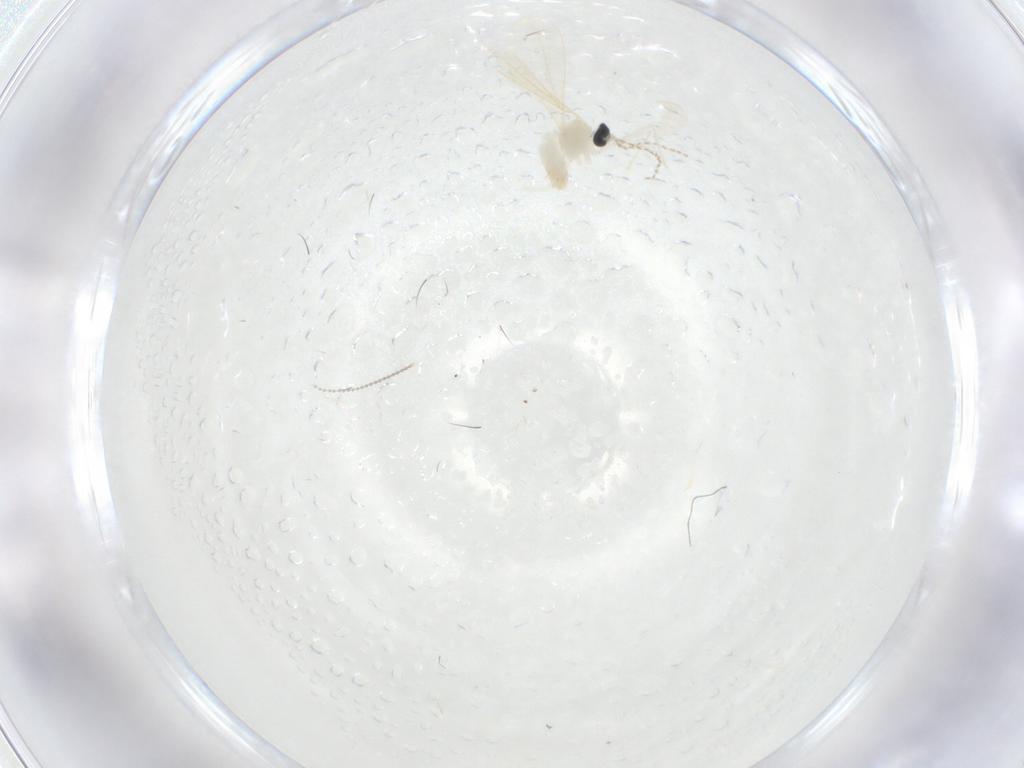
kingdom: Animalia
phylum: Arthropoda
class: Insecta
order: Diptera
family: Cecidomyiidae
